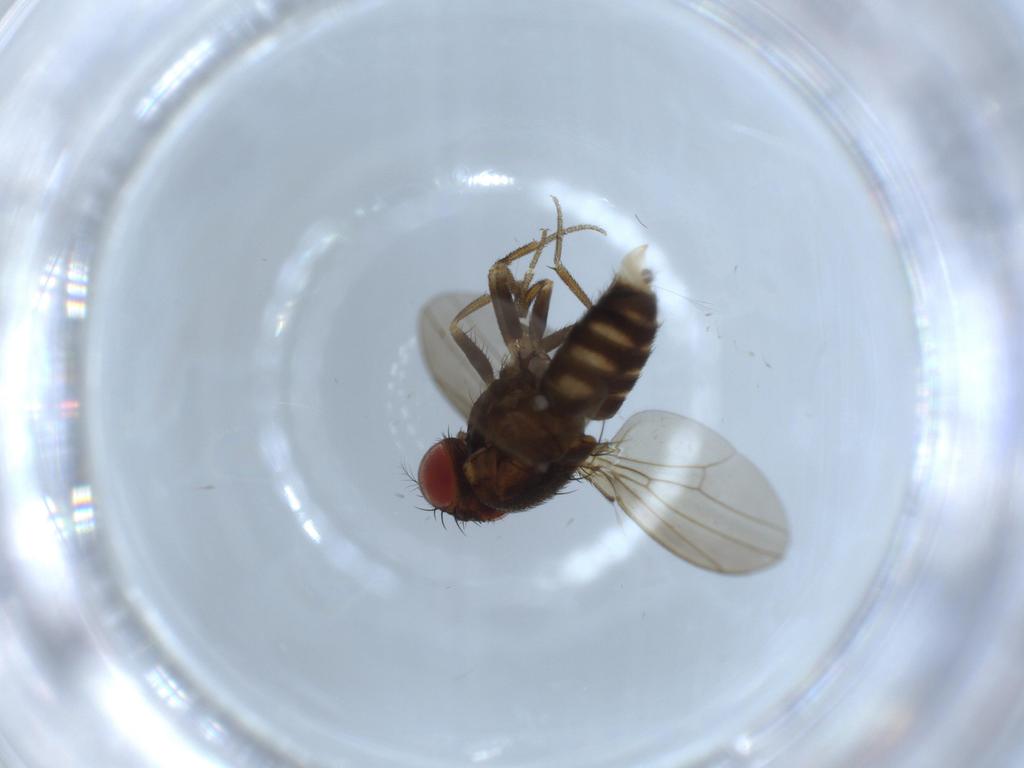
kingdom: Animalia
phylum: Arthropoda
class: Insecta
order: Diptera
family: Drosophilidae
